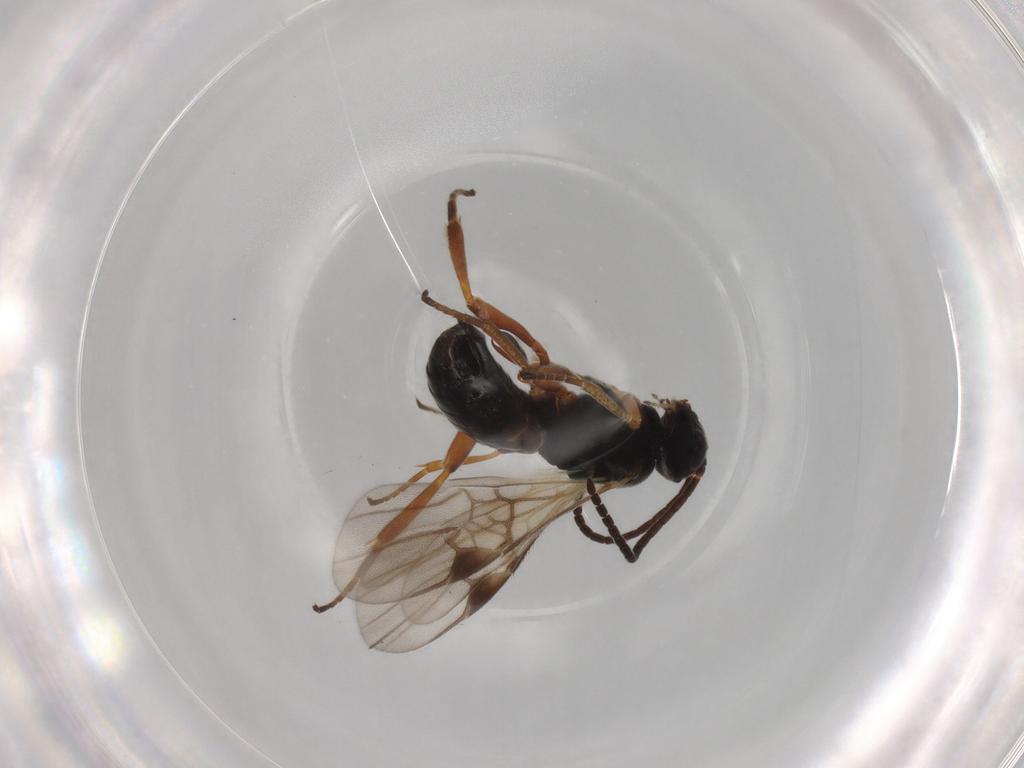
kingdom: Animalia
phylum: Arthropoda
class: Insecta
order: Hymenoptera
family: Braconidae
